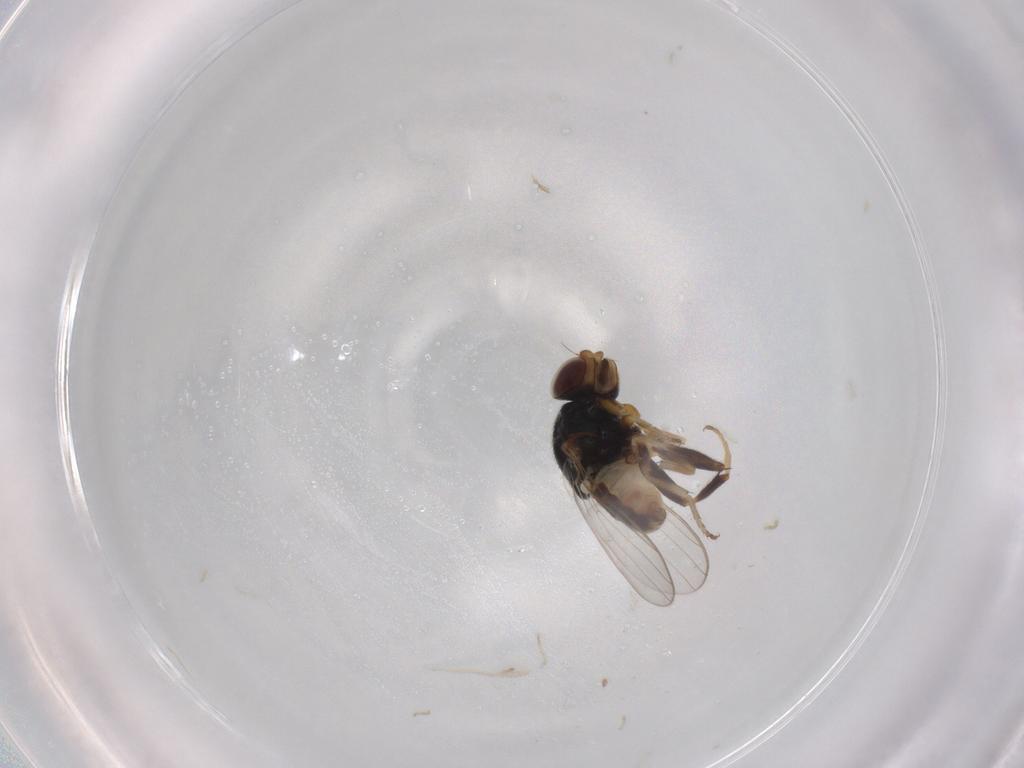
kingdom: Animalia
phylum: Arthropoda
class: Insecta
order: Diptera
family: Chloropidae
